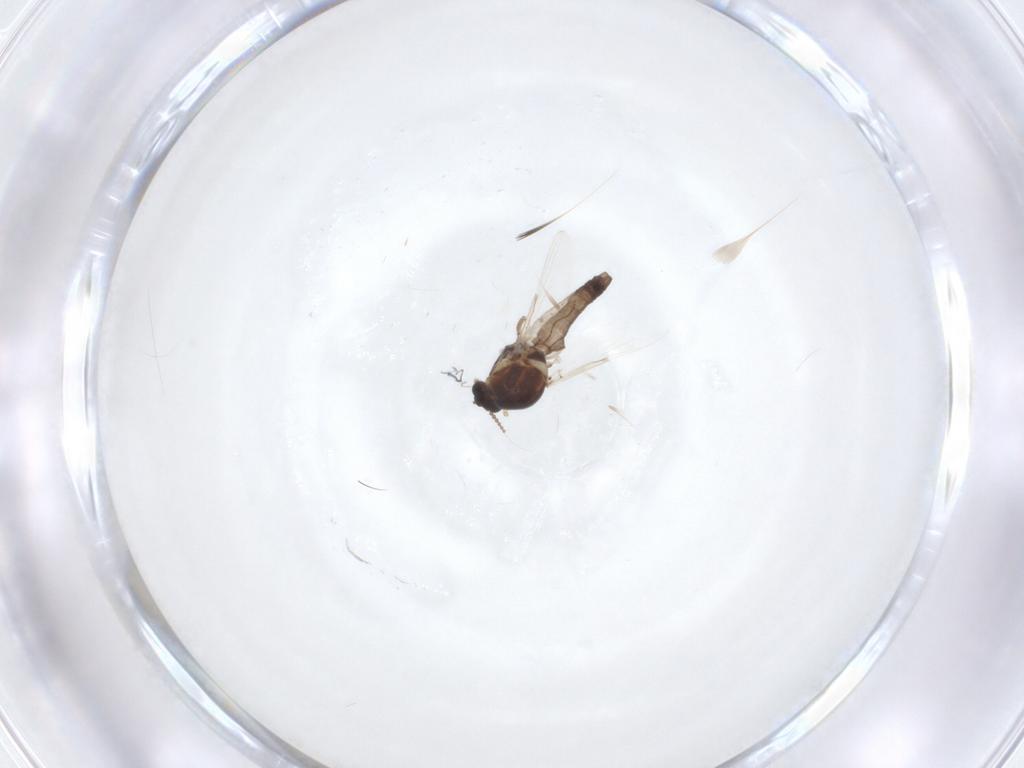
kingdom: Animalia
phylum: Arthropoda
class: Insecta
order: Diptera
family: Ceratopogonidae
